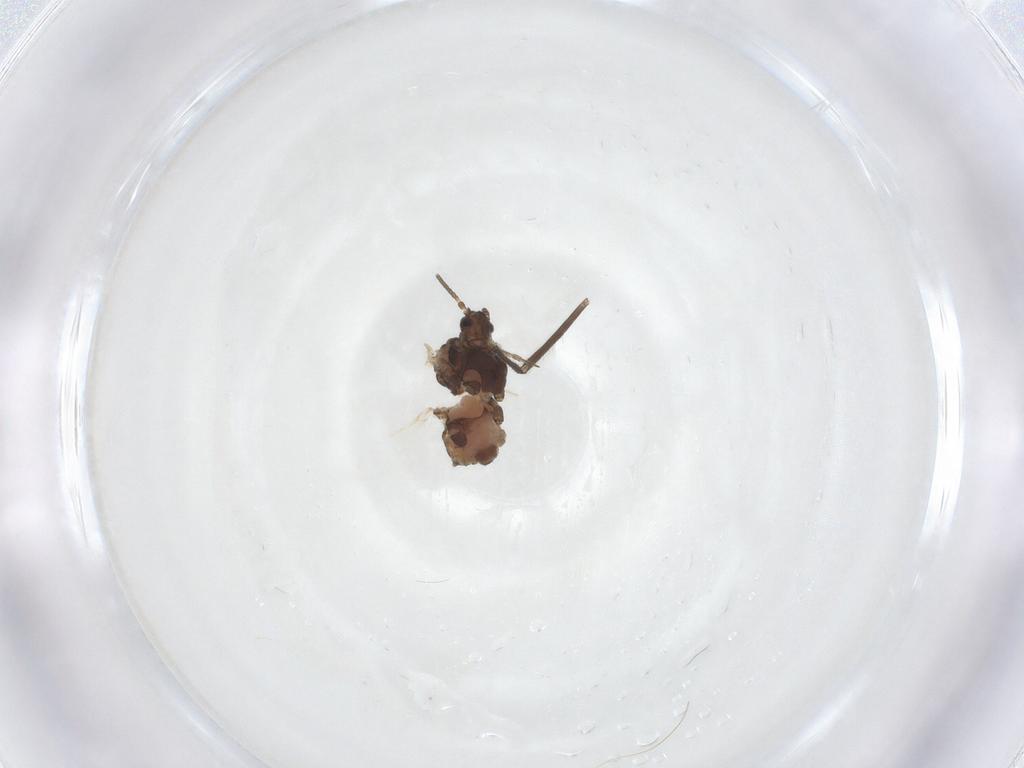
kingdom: Animalia
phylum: Arthropoda
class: Insecta
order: Hemiptera
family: Aphididae
